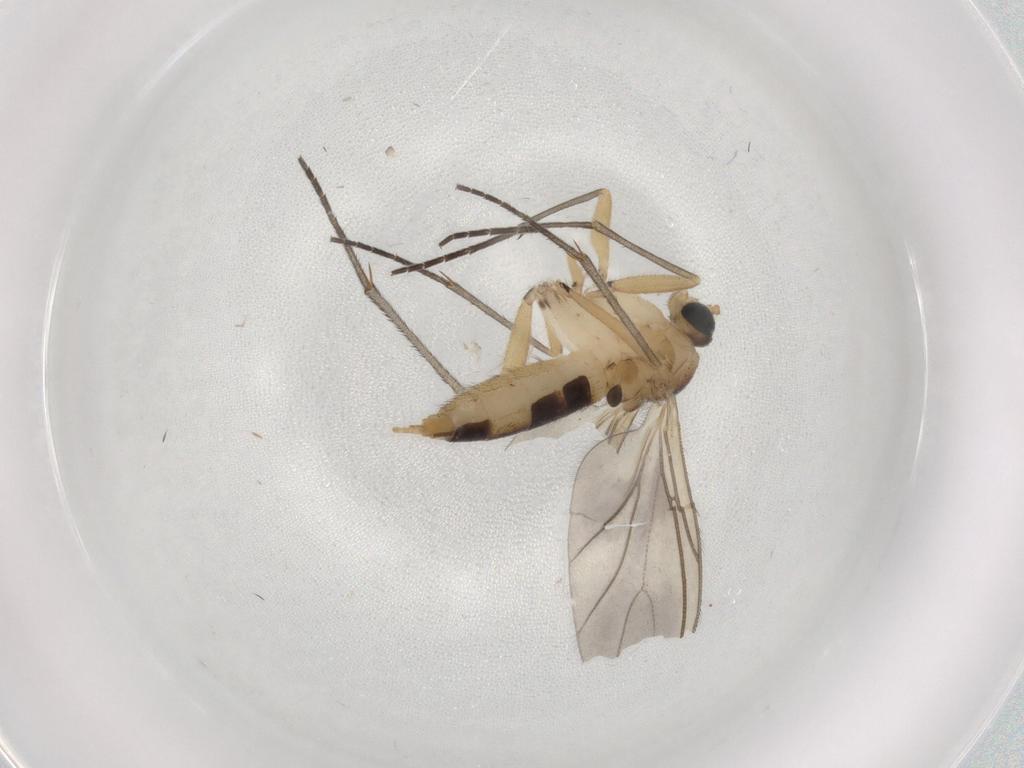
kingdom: Animalia
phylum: Arthropoda
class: Insecta
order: Diptera
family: Sciaridae
